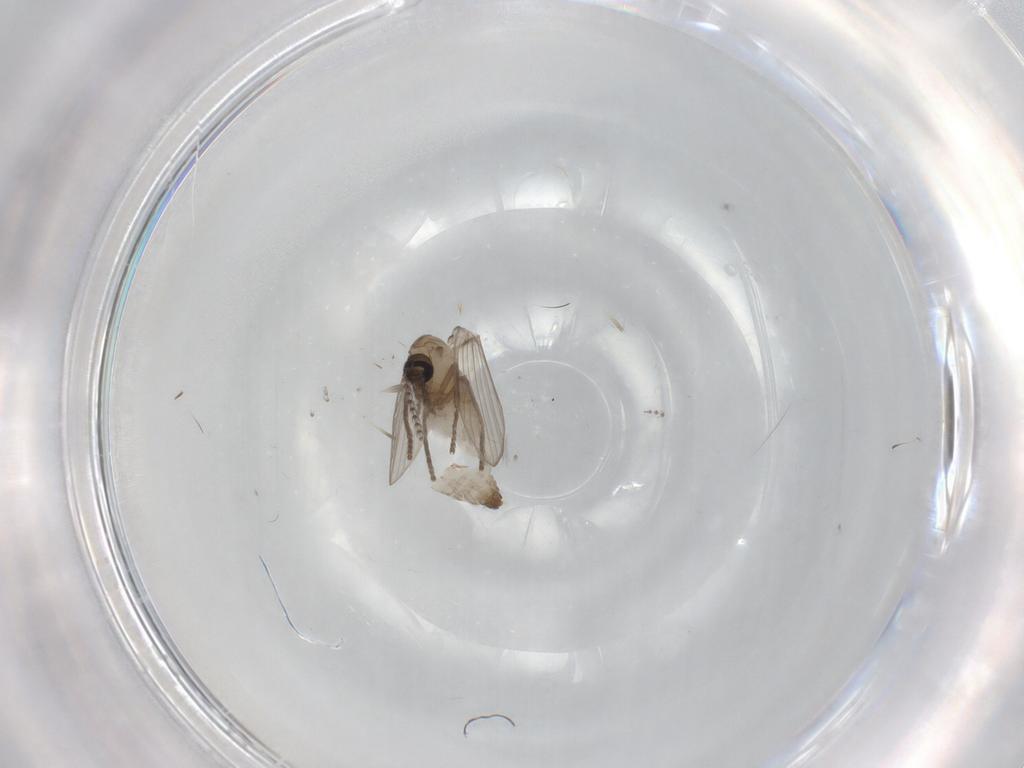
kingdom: Animalia
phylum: Arthropoda
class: Insecta
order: Diptera
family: Psychodidae
